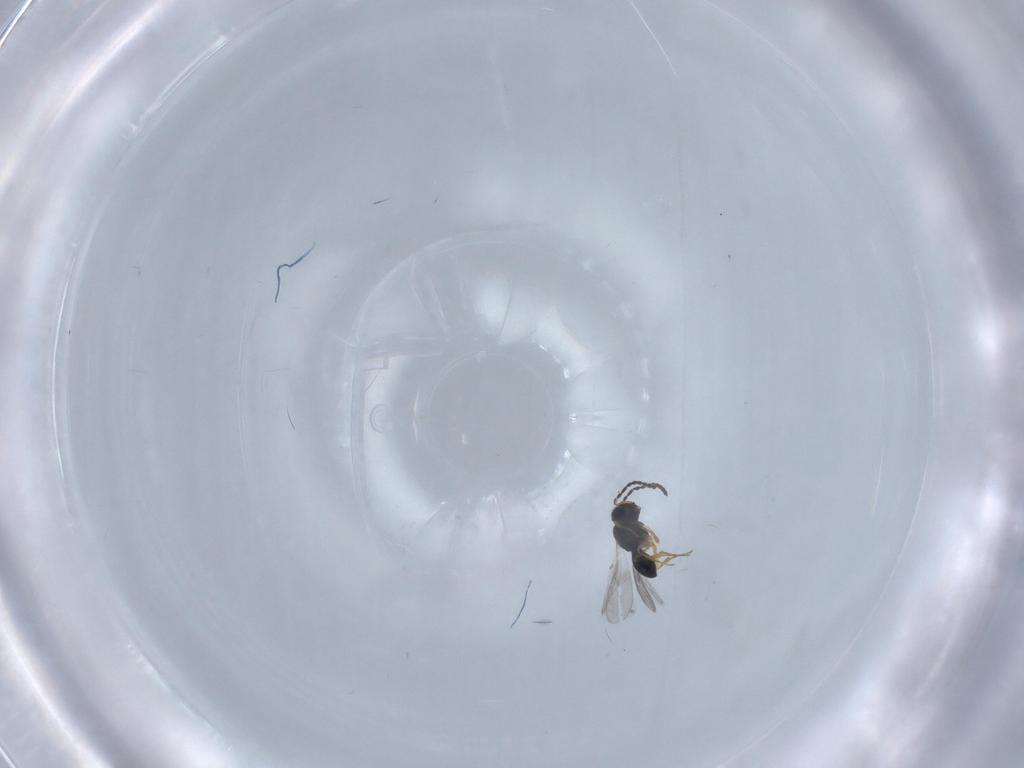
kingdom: Animalia
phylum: Arthropoda
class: Insecta
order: Hymenoptera
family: Scelionidae
